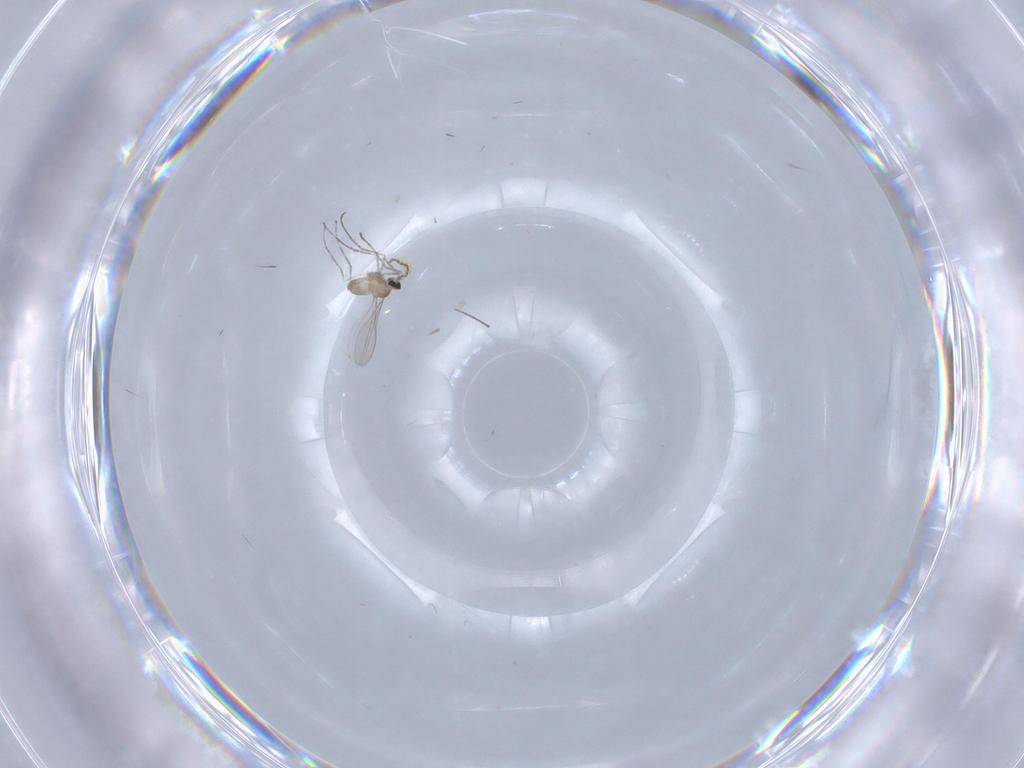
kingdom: Animalia
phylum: Arthropoda
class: Insecta
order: Diptera
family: Cecidomyiidae
